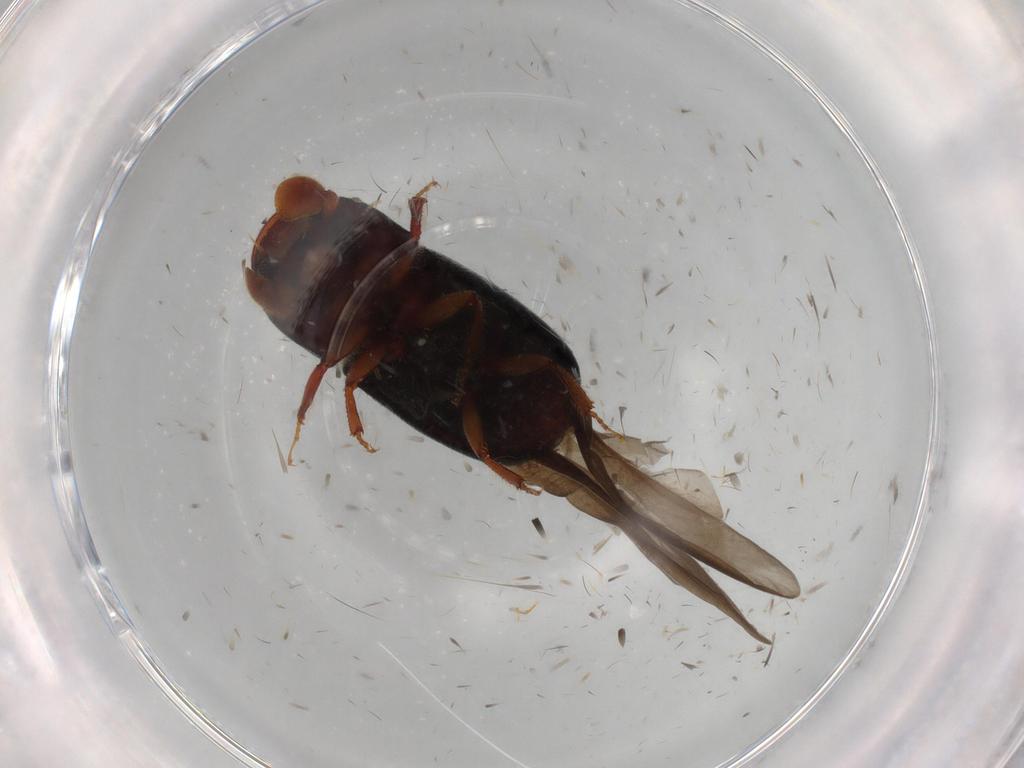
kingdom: Animalia
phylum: Arthropoda
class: Insecta
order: Coleoptera
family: Curculionidae
